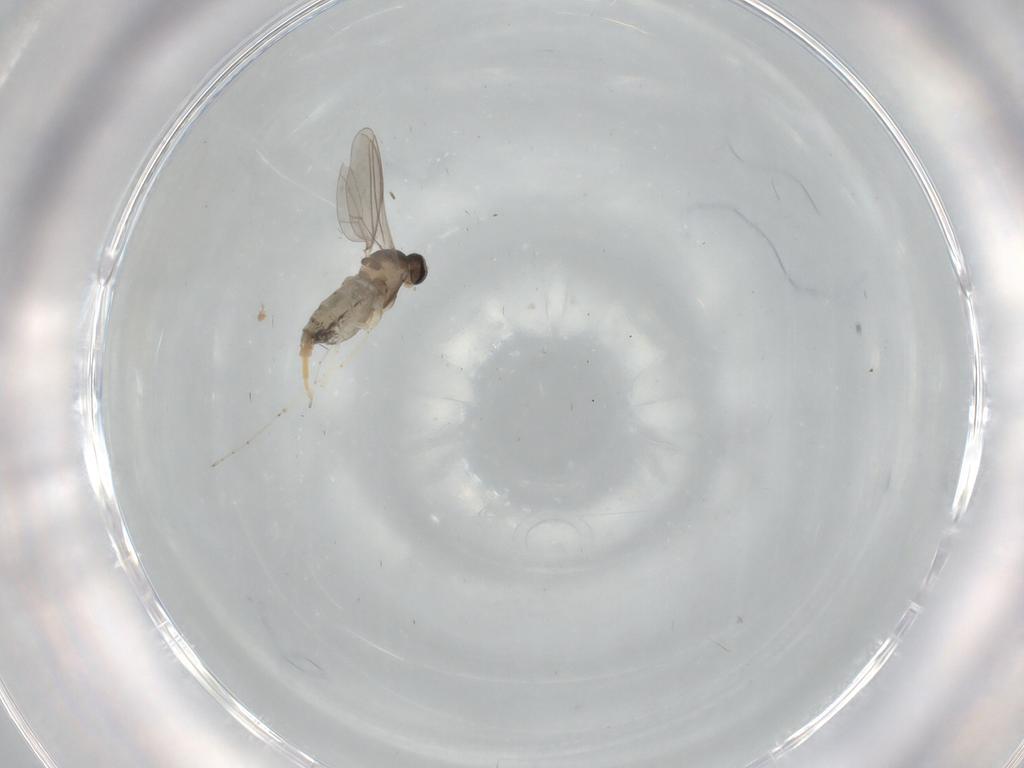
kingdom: Animalia
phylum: Arthropoda
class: Insecta
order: Diptera
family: Cecidomyiidae
